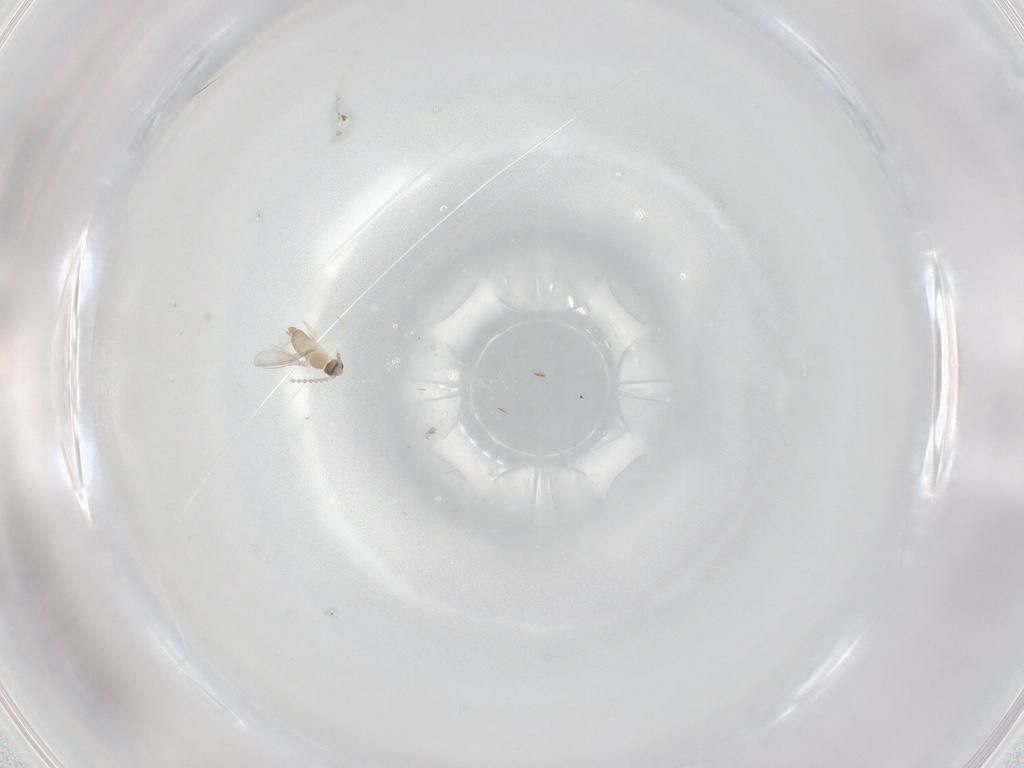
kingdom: Animalia
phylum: Arthropoda
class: Insecta
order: Diptera
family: Cecidomyiidae
